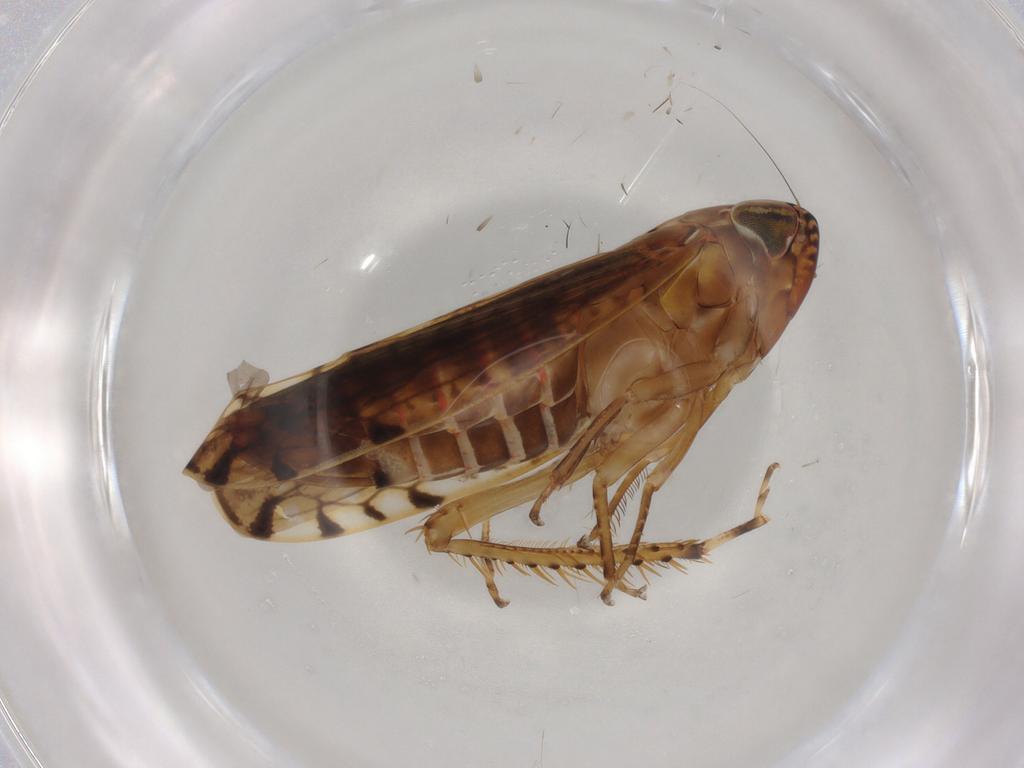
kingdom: Animalia
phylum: Arthropoda
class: Insecta
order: Hemiptera
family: Cicadellidae
